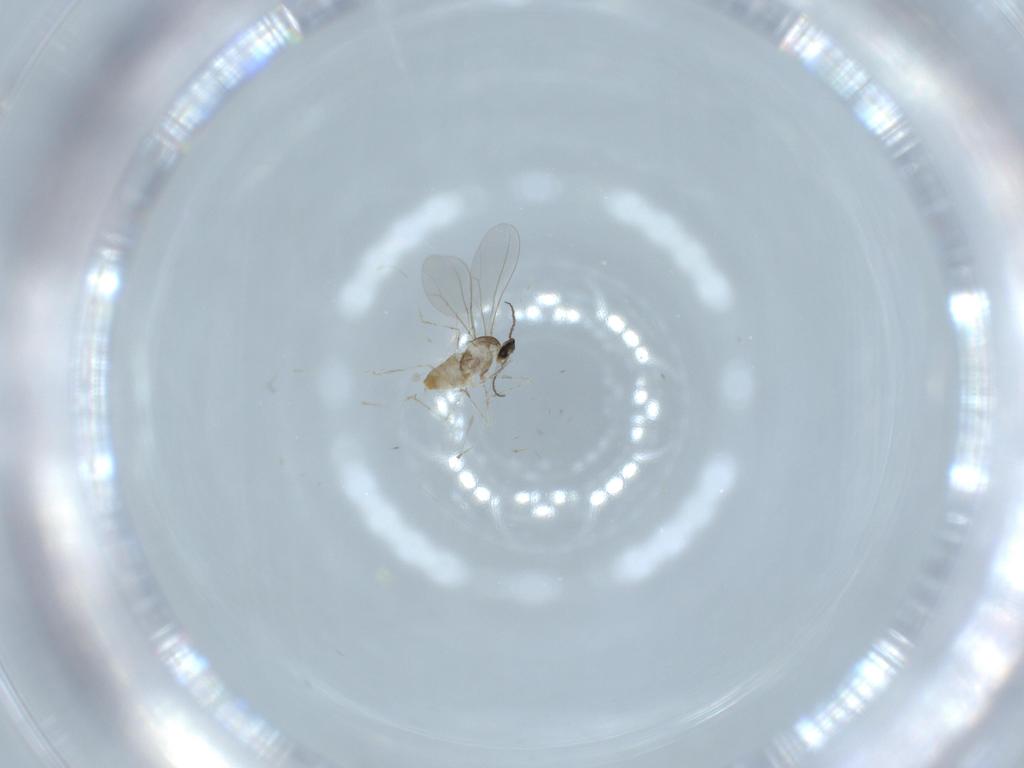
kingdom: Animalia
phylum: Arthropoda
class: Insecta
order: Diptera
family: Cecidomyiidae
